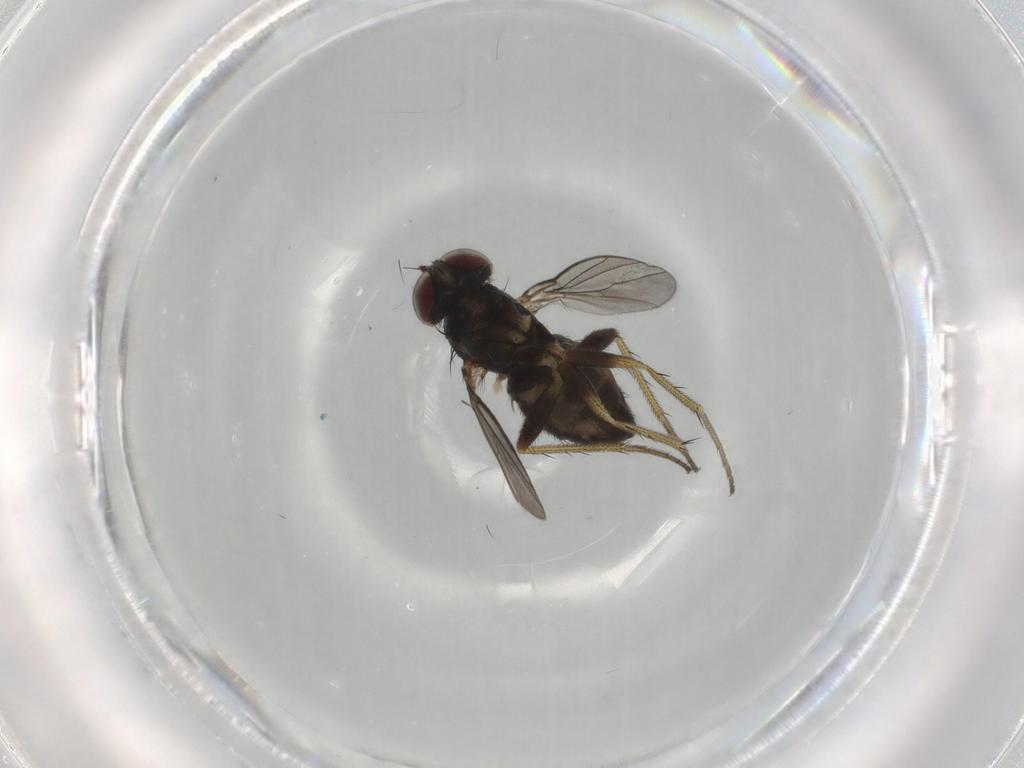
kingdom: Animalia
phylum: Arthropoda
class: Insecta
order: Diptera
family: Dolichopodidae
